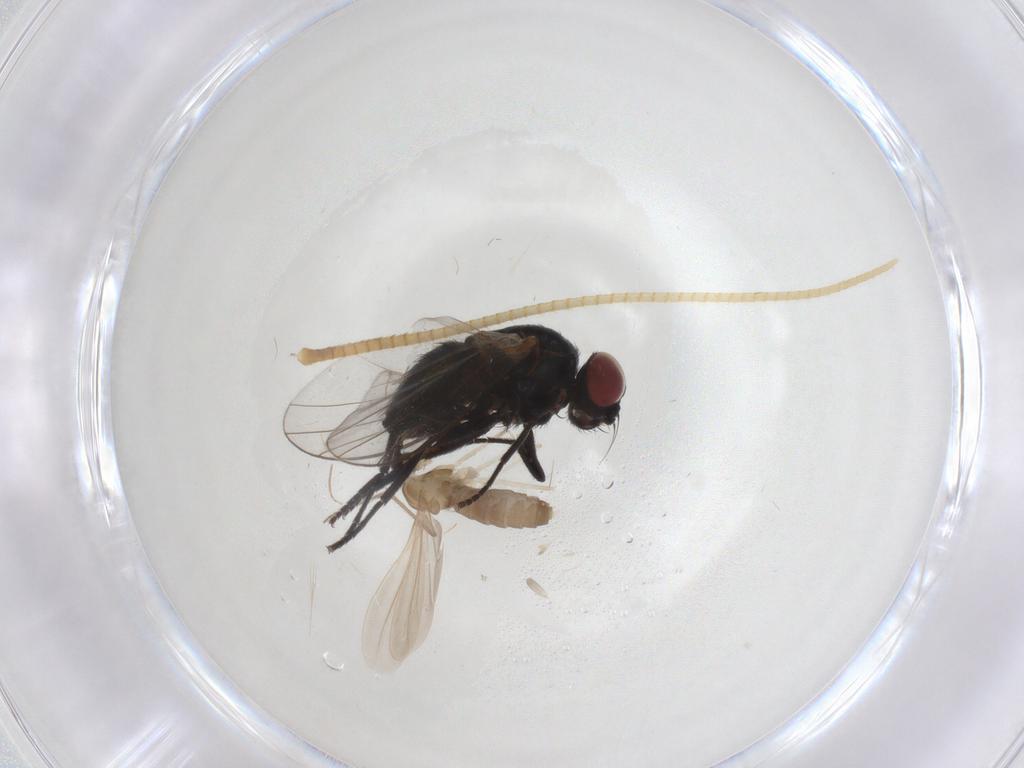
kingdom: Animalia
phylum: Arthropoda
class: Insecta
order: Diptera
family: Agromyzidae
